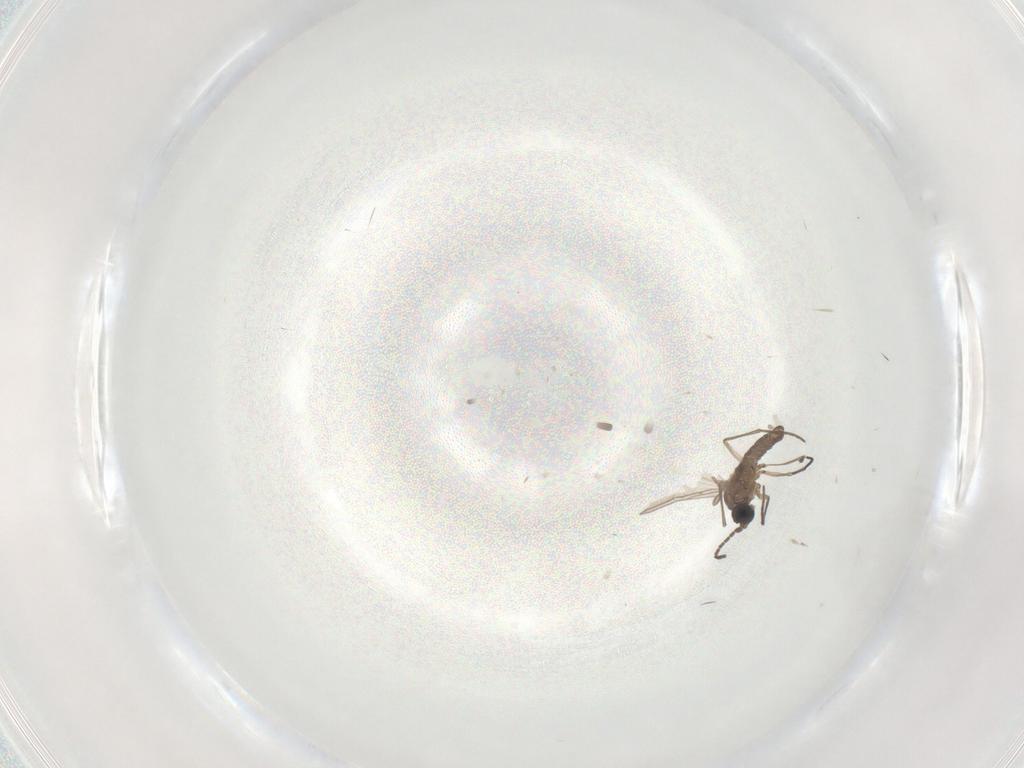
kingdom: Animalia
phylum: Arthropoda
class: Insecta
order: Diptera
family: Sciaridae
